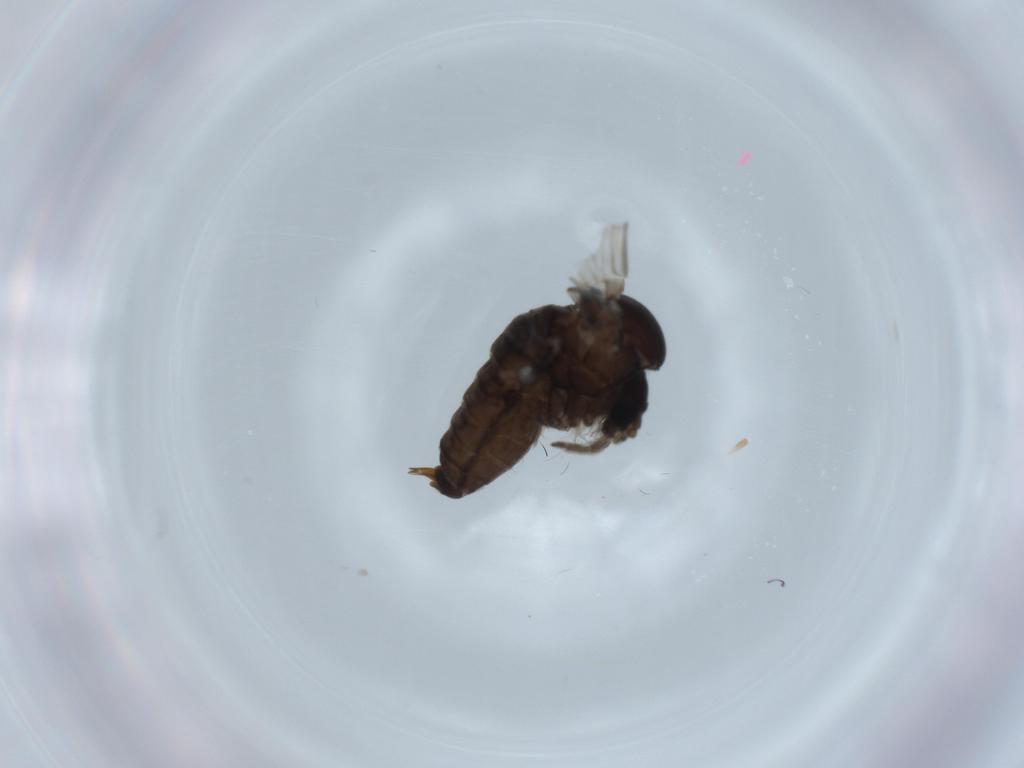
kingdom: Animalia
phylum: Arthropoda
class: Insecta
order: Diptera
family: Psychodidae
